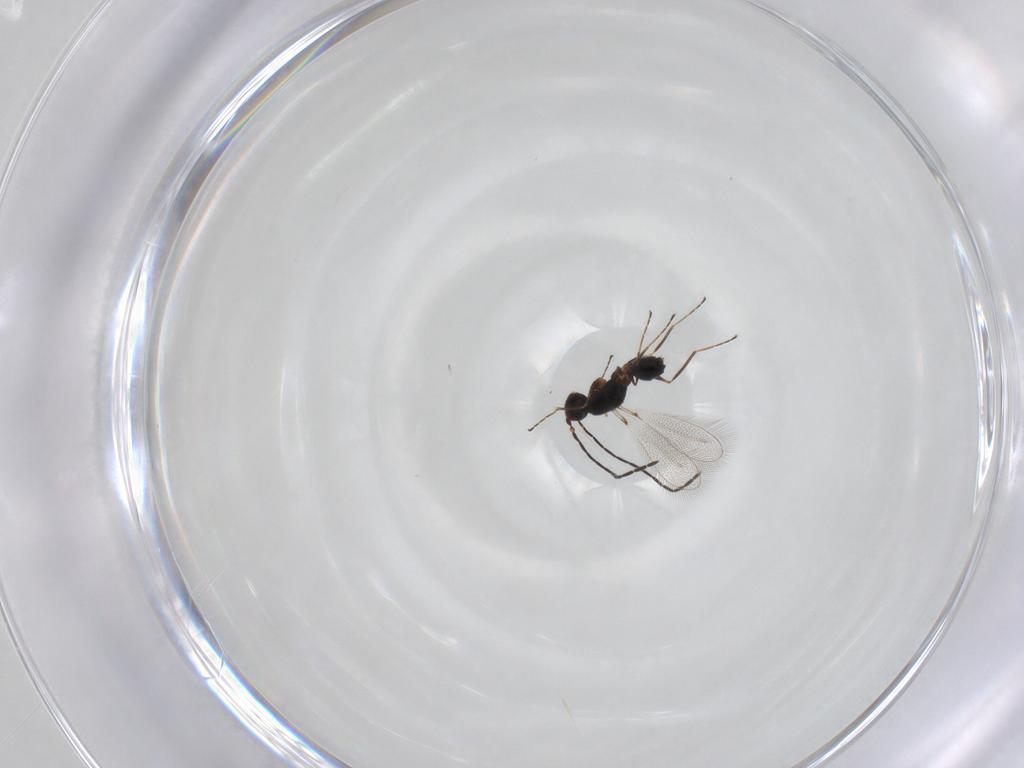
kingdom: Animalia
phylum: Arthropoda
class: Insecta
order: Hymenoptera
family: Mymaridae
